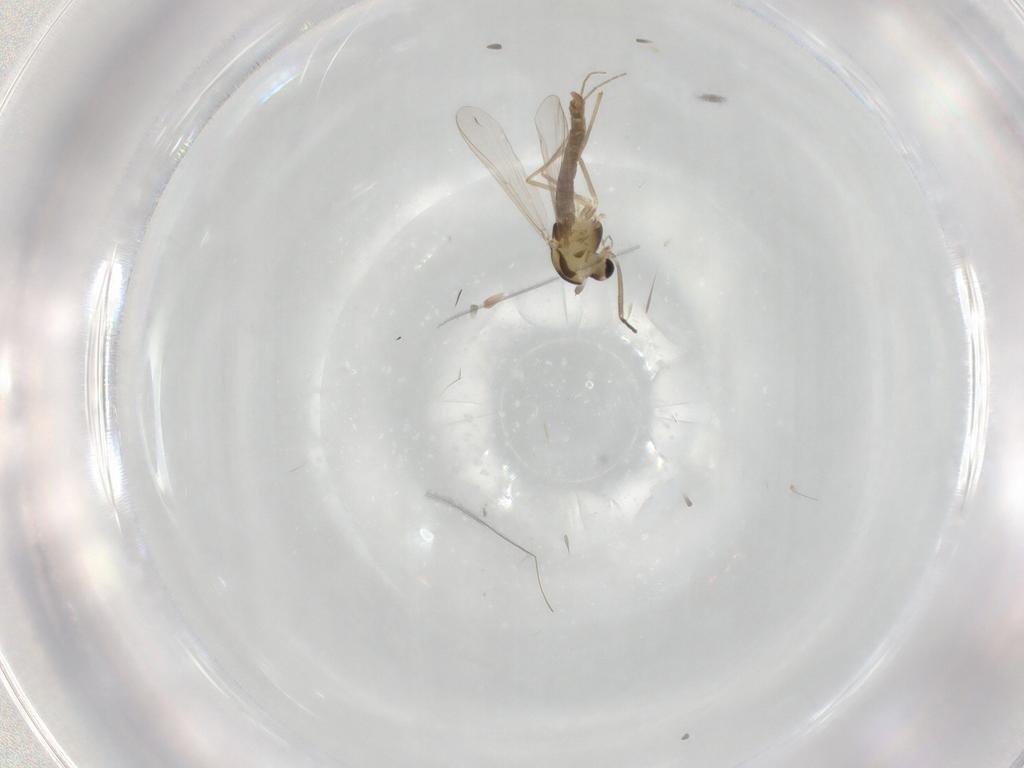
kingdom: Animalia
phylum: Arthropoda
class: Insecta
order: Diptera
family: Chironomidae
